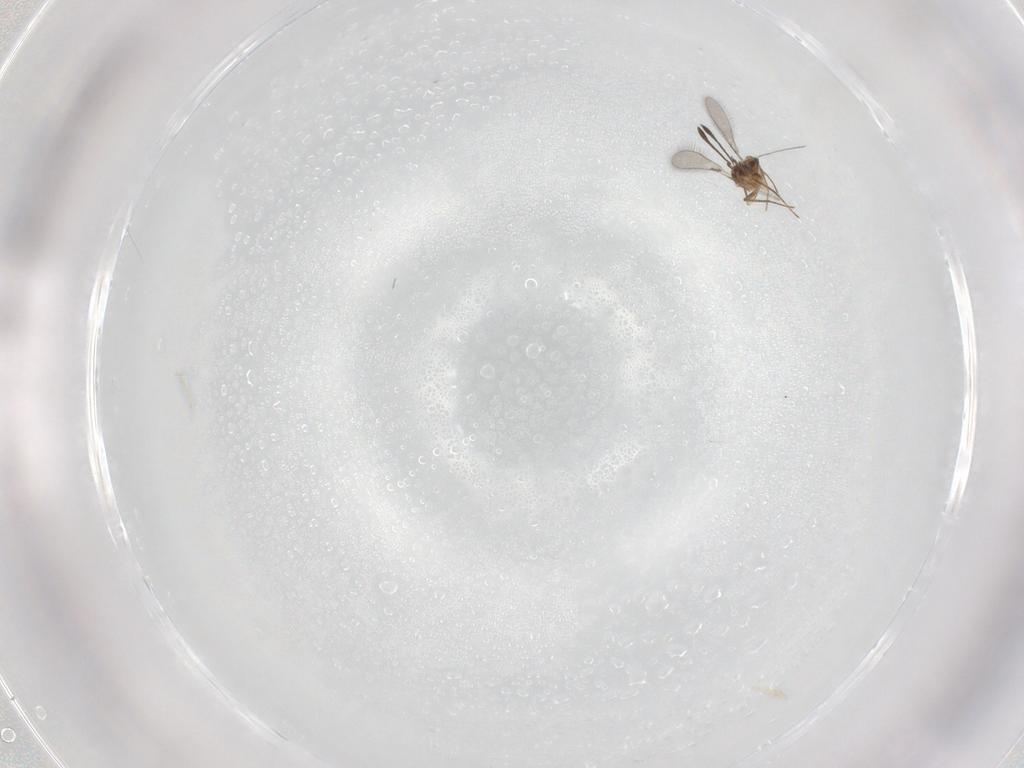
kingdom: Animalia
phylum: Arthropoda
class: Insecta
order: Hymenoptera
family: Mymaridae
